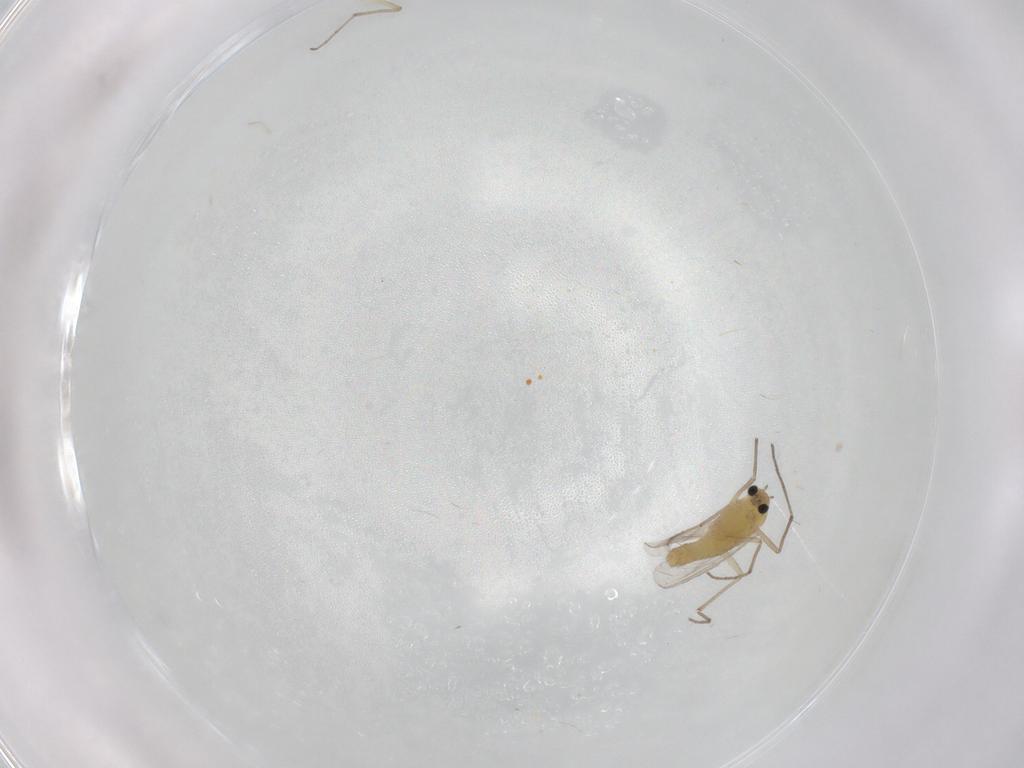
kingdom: Animalia
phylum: Arthropoda
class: Insecta
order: Diptera
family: Chironomidae
